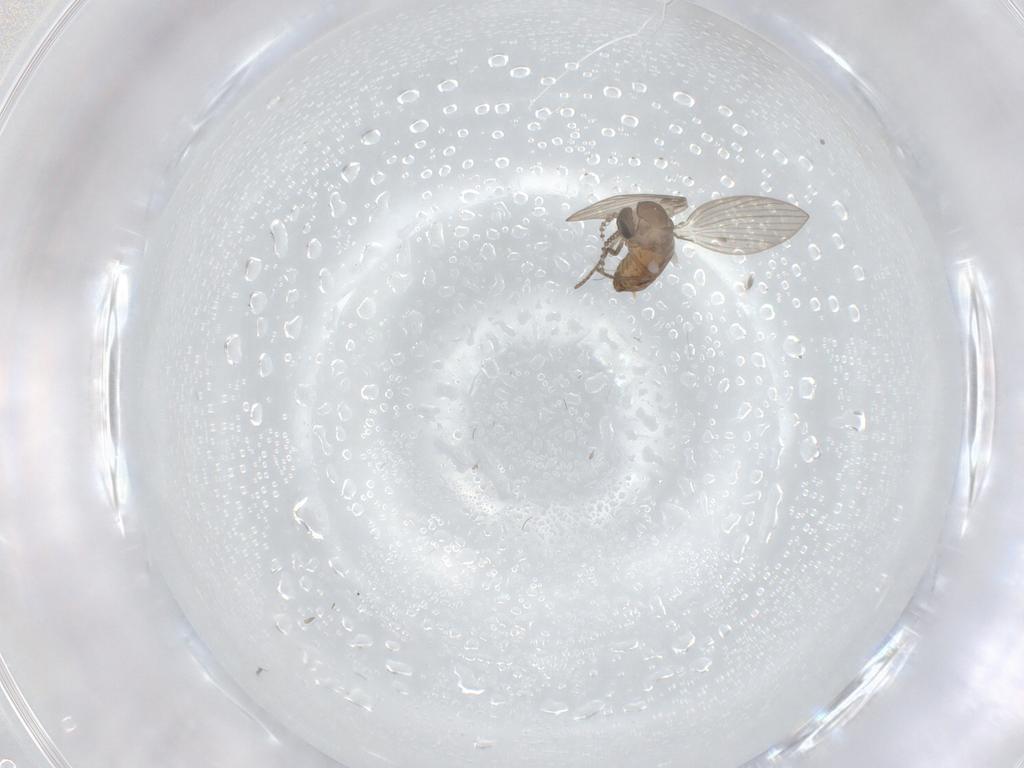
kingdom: Animalia
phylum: Arthropoda
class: Insecta
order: Diptera
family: Psychodidae
